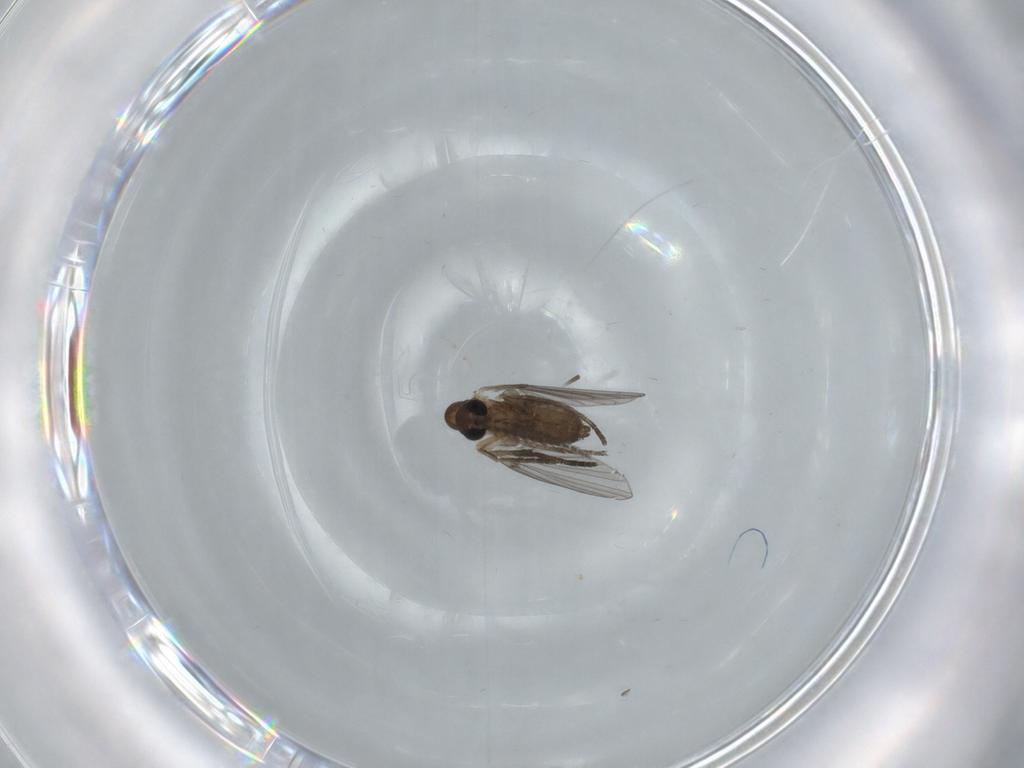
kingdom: Animalia
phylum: Arthropoda
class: Insecta
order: Diptera
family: Psychodidae
